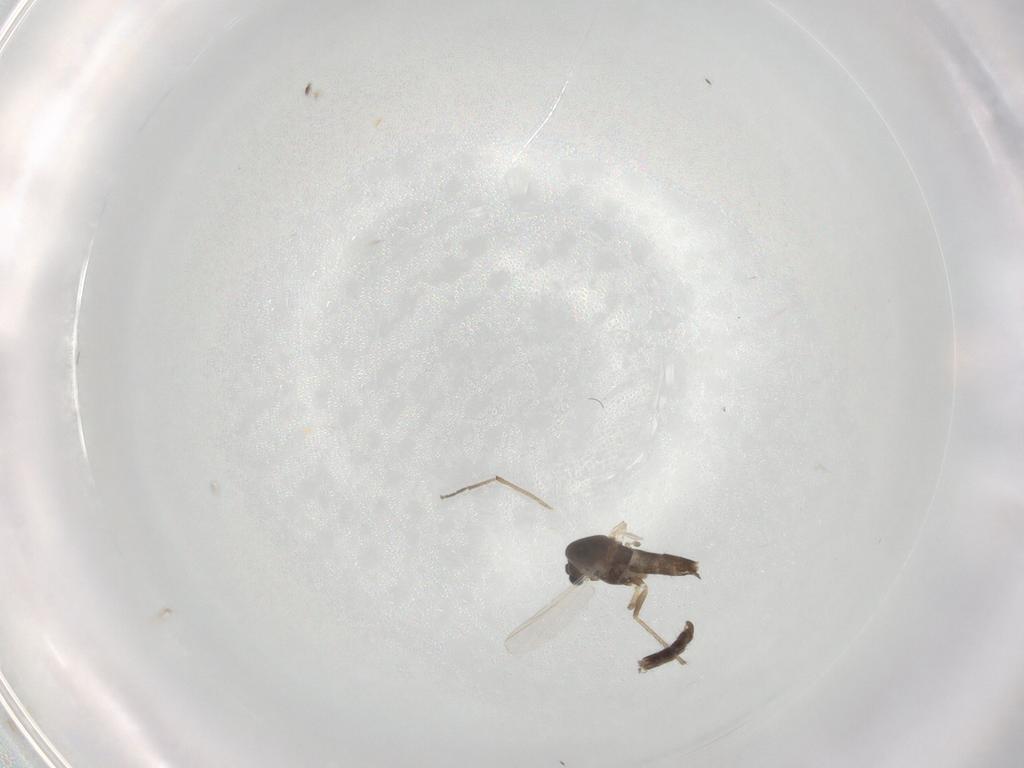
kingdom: Animalia
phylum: Arthropoda
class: Insecta
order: Diptera
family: Chironomidae
